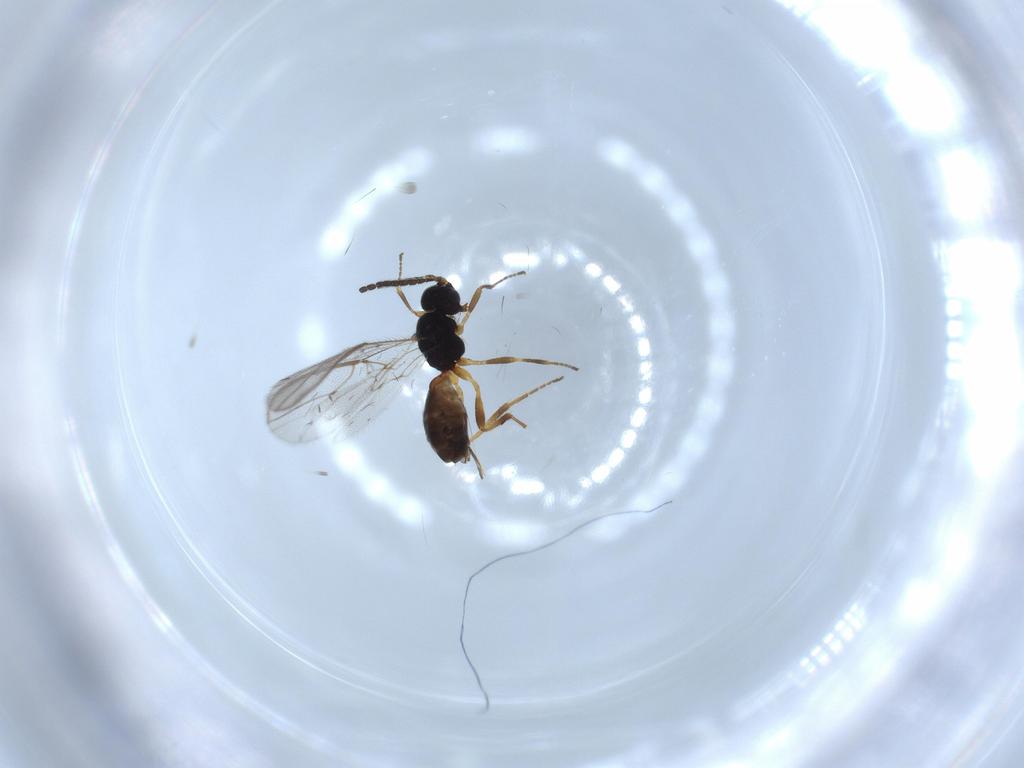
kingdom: Animalia
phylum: Arthropoda
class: Insecta
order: Hymenoptera
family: Braconidae
